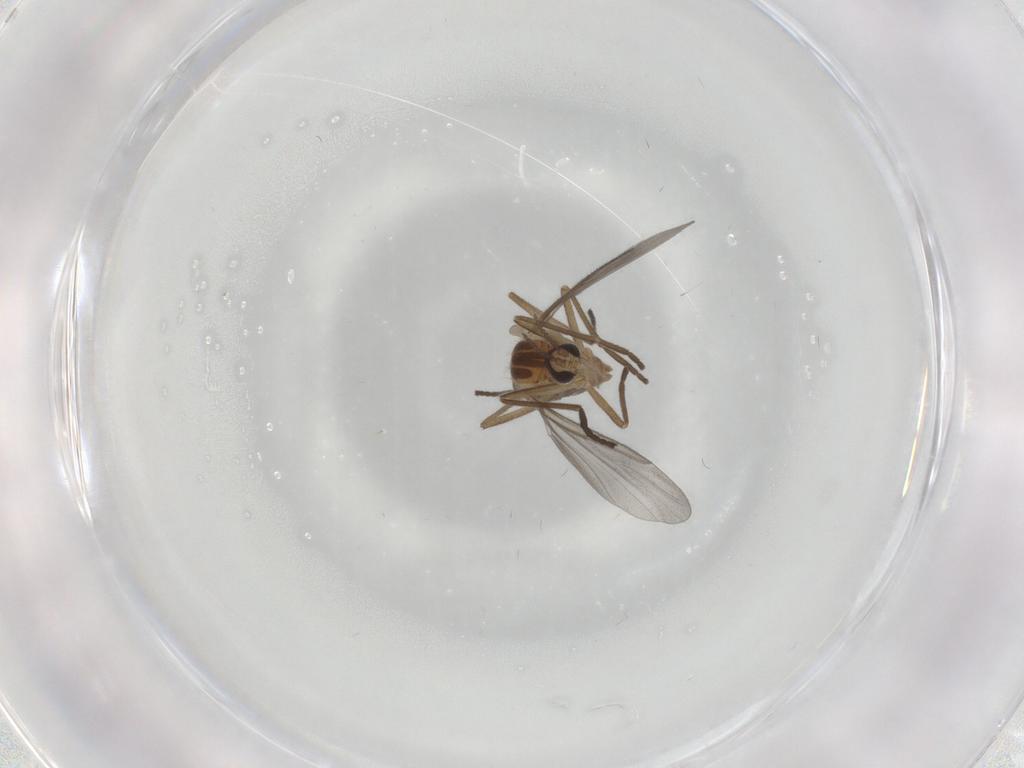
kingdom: Animalia
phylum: Arthropoda
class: Insecta
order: Diptera
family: Cecidomyiidae
